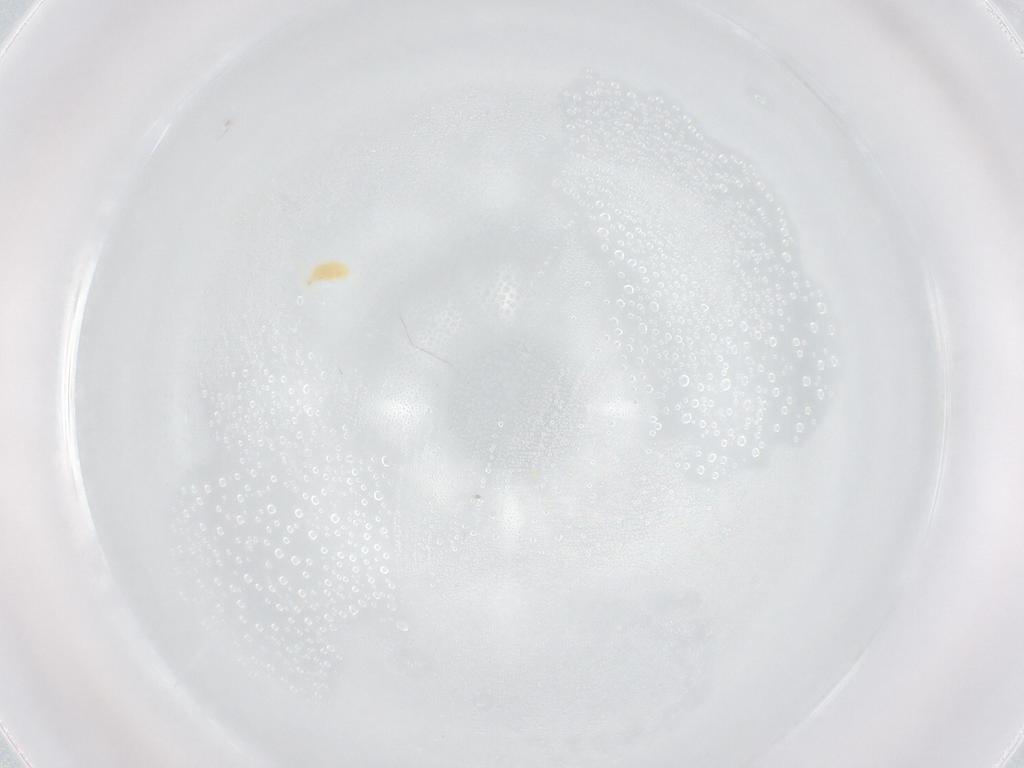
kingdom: Animalia
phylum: Arthropoda
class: Arachnida
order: Trombidiformes
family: Tetranychidae
